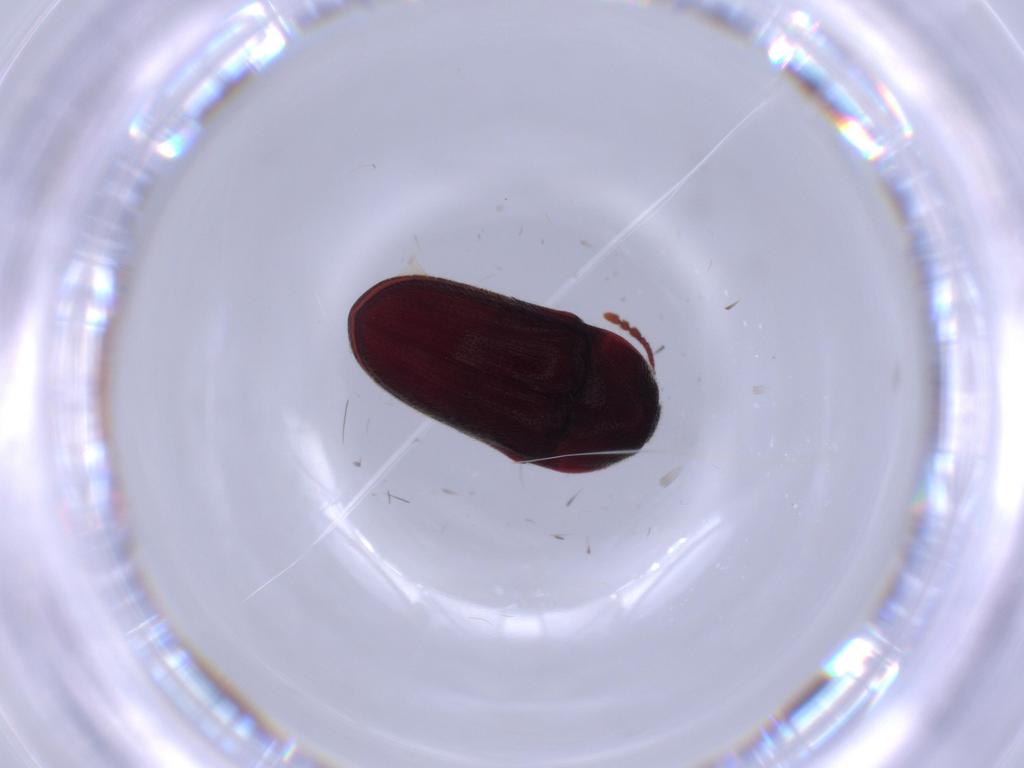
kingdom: Animalia
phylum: Arthropoda
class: Insecta
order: Coleoptera
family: Throscidae
